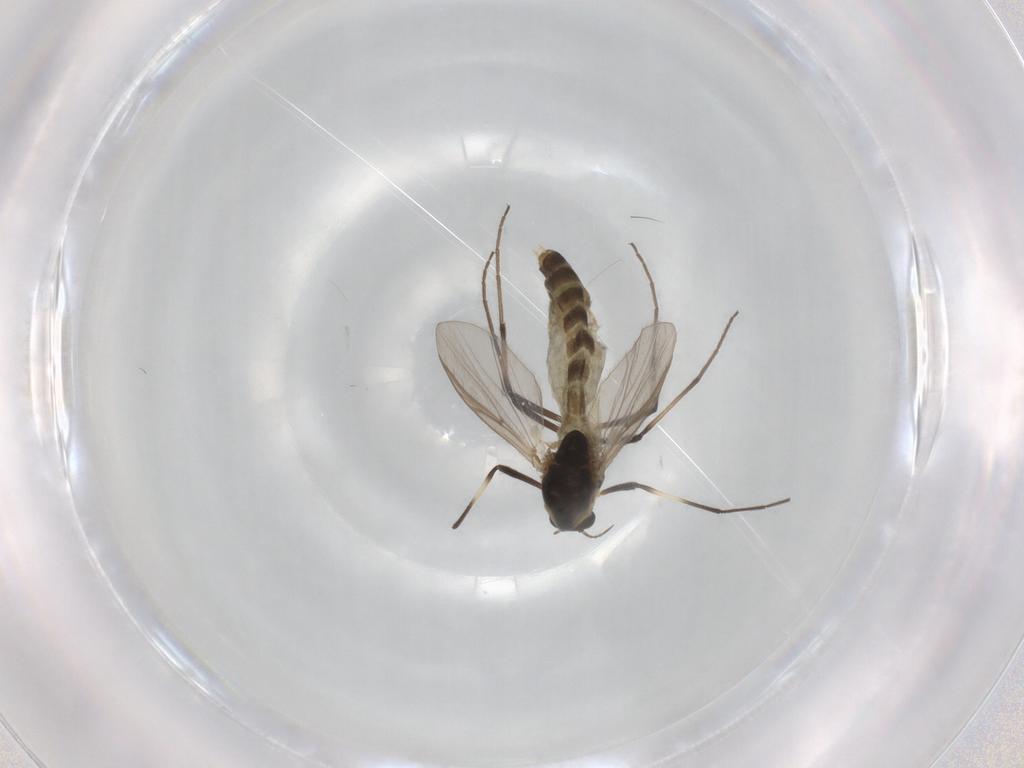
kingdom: Animalia
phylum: Arthropoda
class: Insecta
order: Diptera
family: Chironomidae
